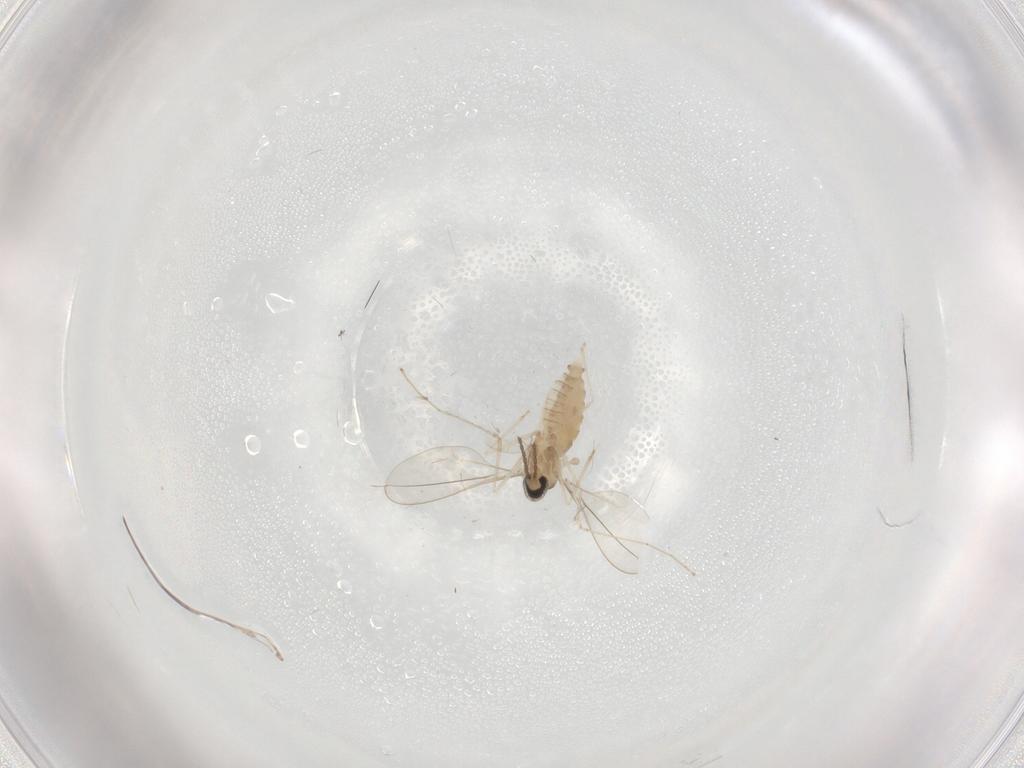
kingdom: Animalia
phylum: Arthropoda
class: Insecta
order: Diptera
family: Cecidomyiidae
